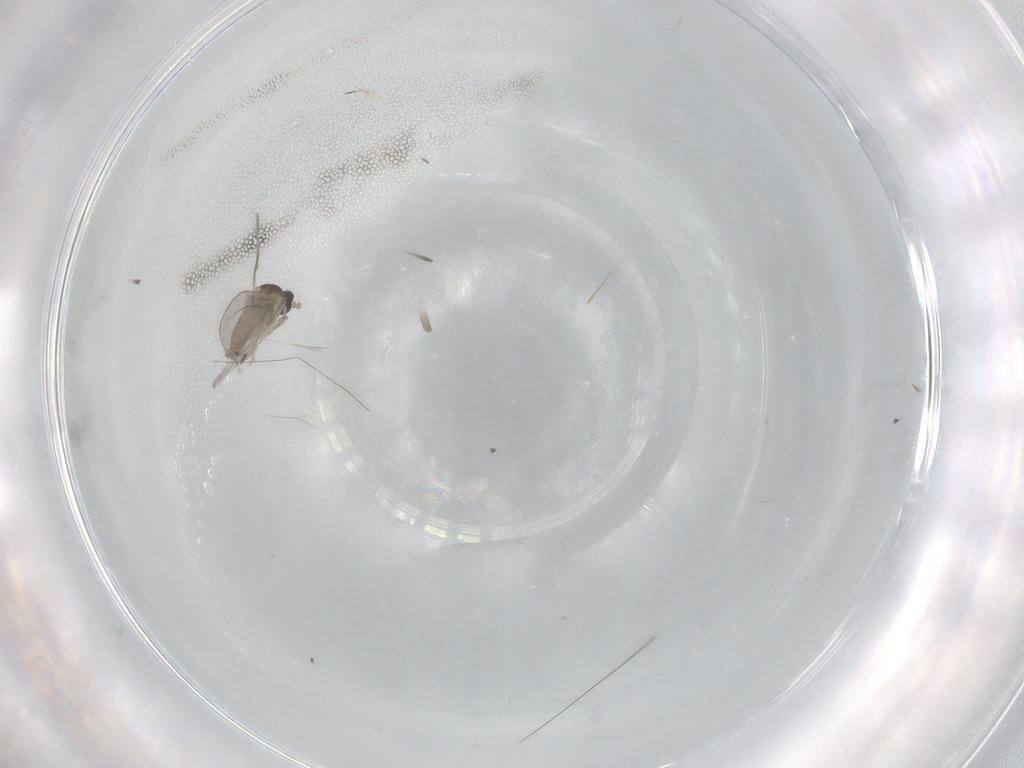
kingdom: Animalia
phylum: Arthropoda
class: Insecta
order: Diptera
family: Cecidomyiidae
